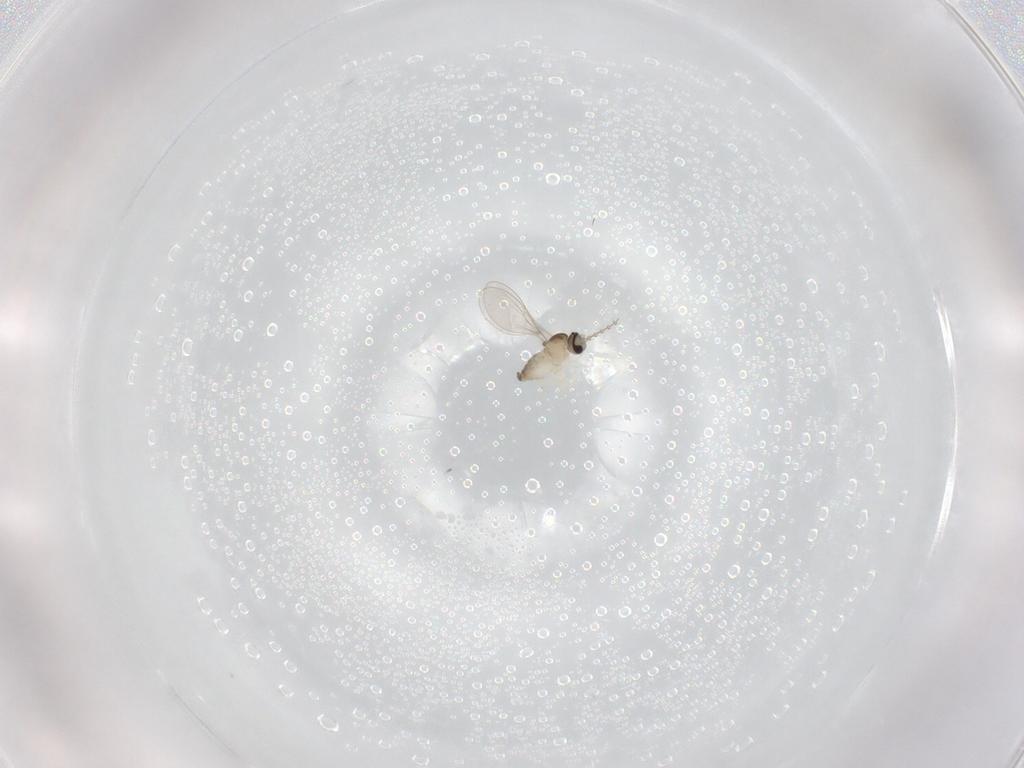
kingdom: Animalia
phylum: Arthropoda
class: Insecta
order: Diptera
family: Cecidomyiidae
